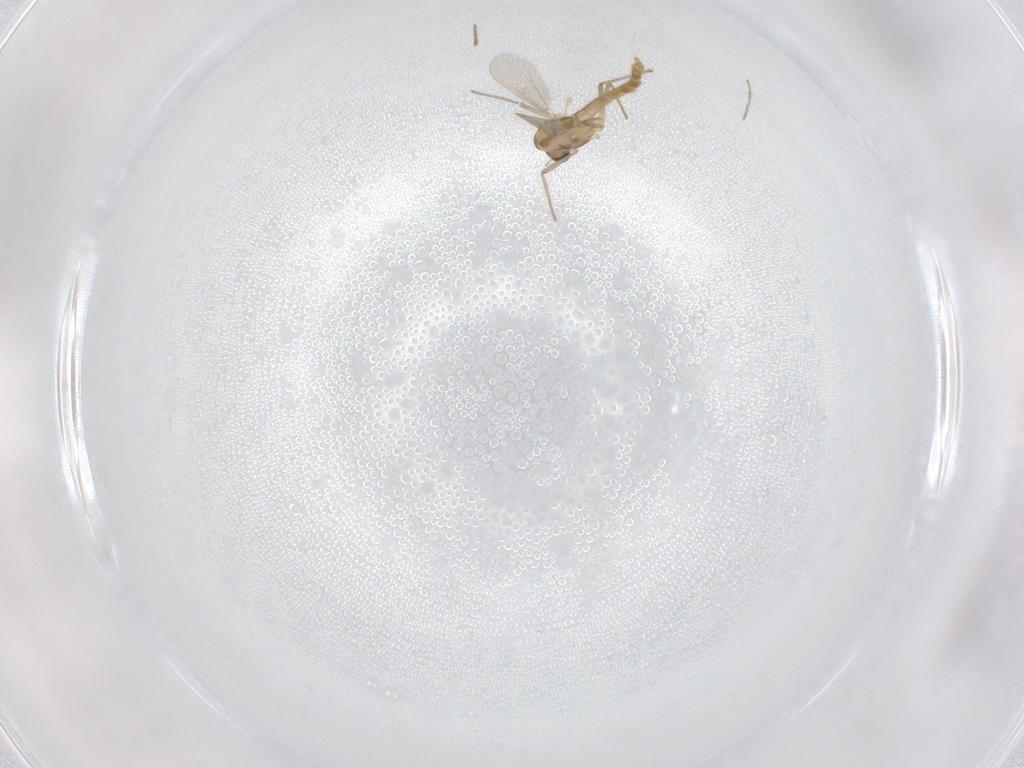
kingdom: Animalia
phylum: Arthropoda
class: Insecta
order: Diptera
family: Chironomidae
